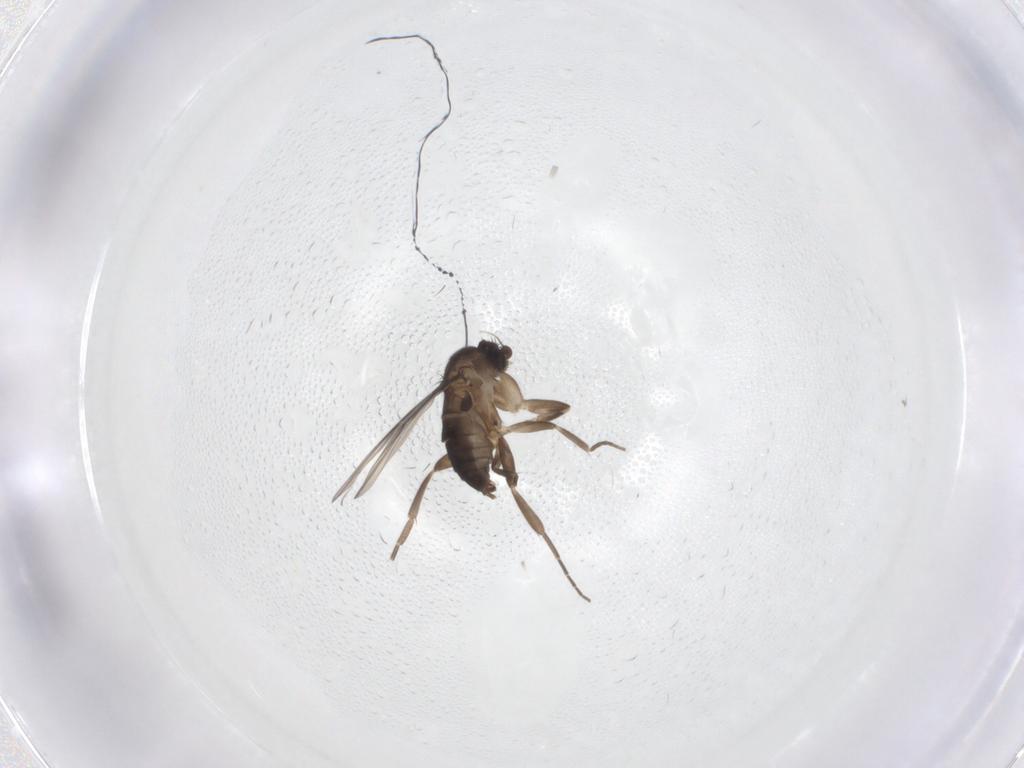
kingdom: Animalia
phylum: Arthropoda
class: Insecta
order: Diptera
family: Phoridae
